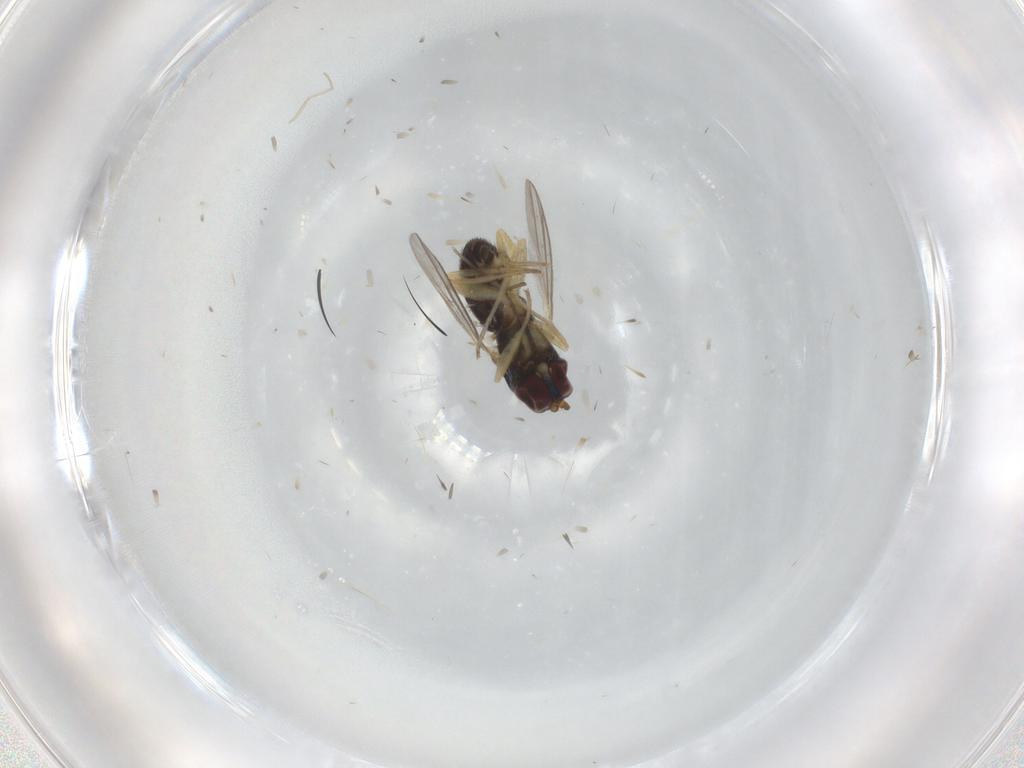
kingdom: Animalia
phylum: Arthropoda
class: Insecta
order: Diptera
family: Dolichopodidae
